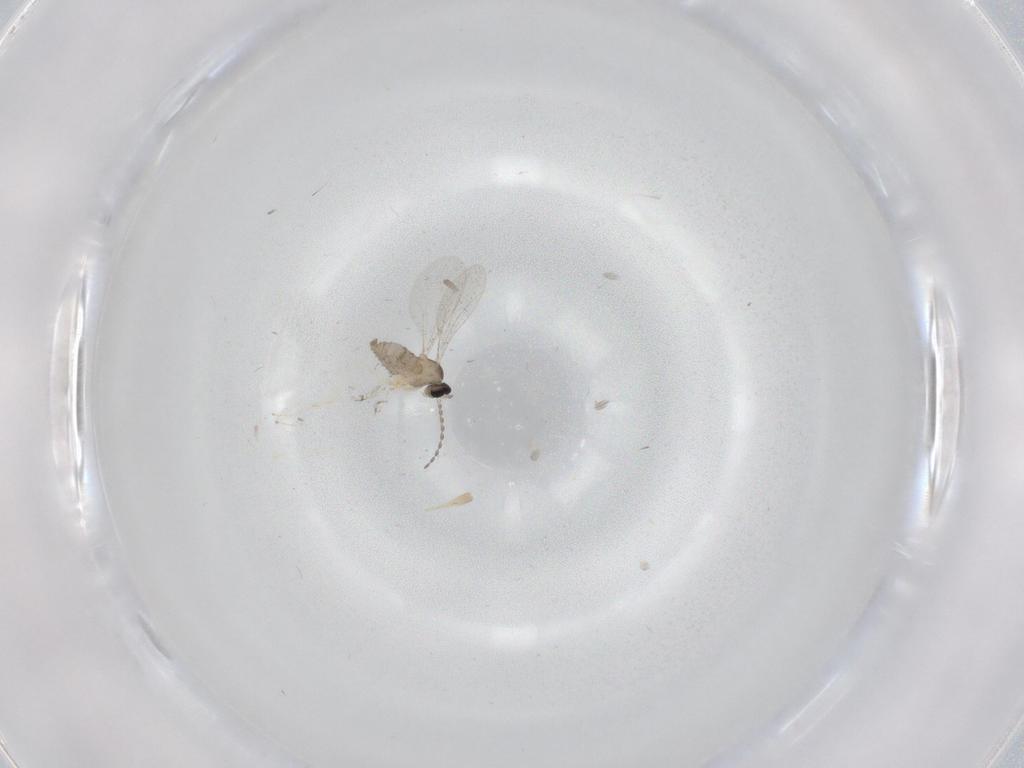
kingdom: Animalia
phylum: Arthropoda
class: Insecta
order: Diptera
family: Cecidomyiidae
